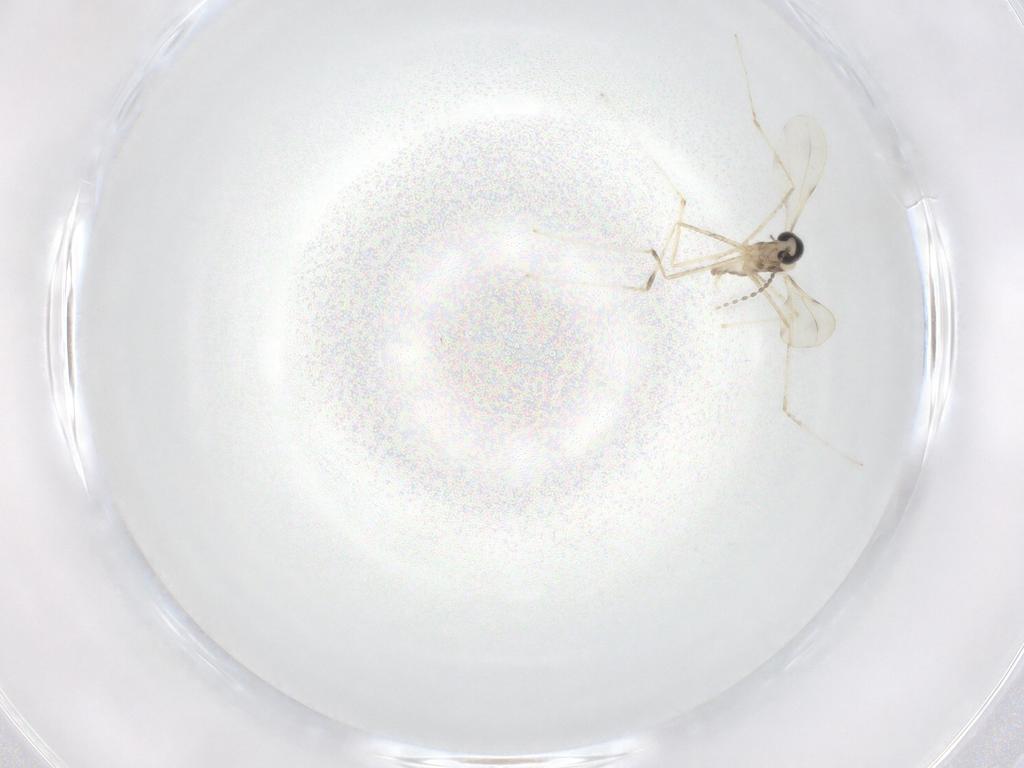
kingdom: Animalia
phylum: Arthropoda
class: Insecta
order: Diptera
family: Cecidomyiidae
